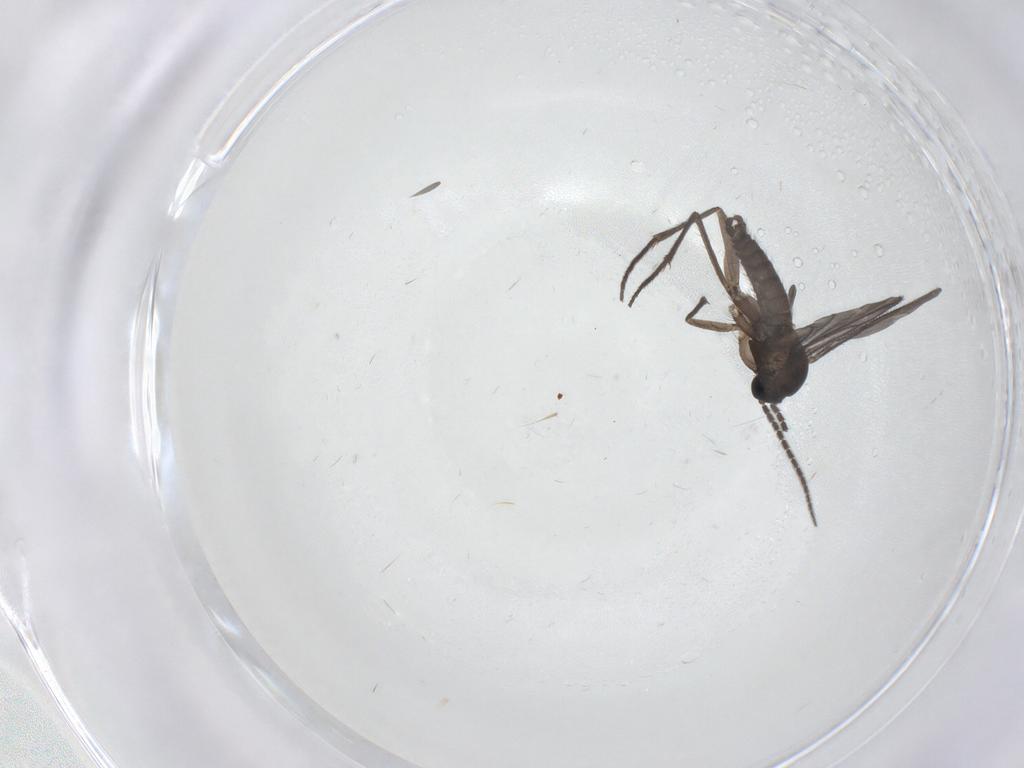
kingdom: Animalia
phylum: Arthropoda
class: Insecta
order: Diptera
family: Sciaridae
